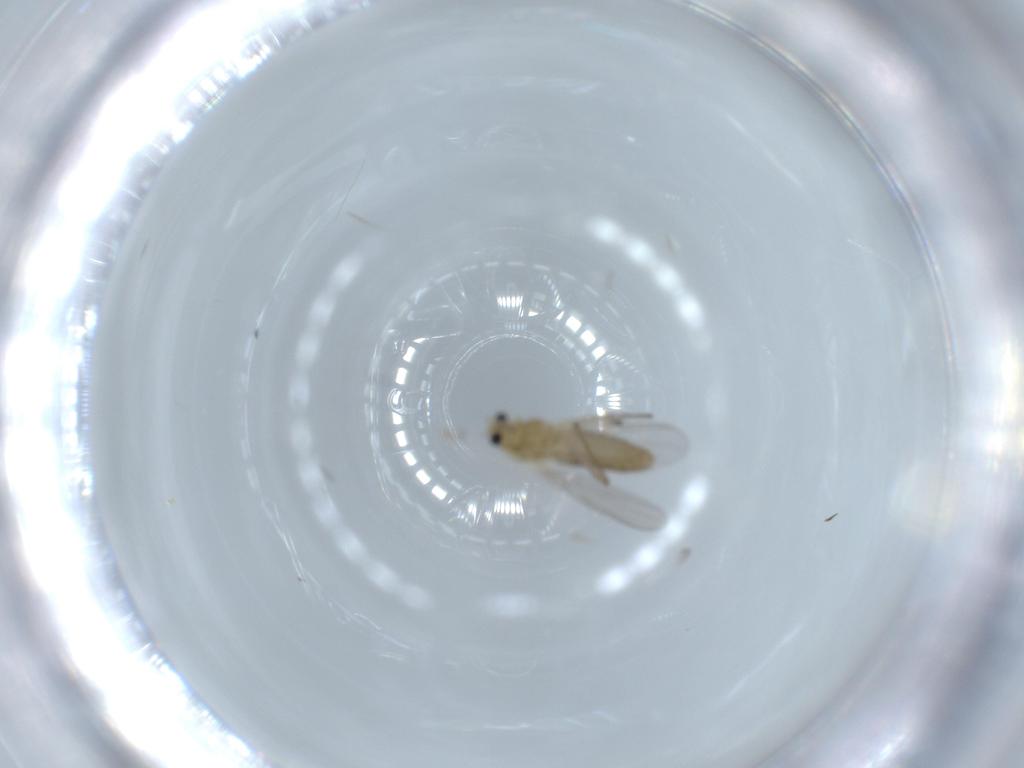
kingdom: Animalia
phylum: Arthropoda
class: Insecta
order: Diptera
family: Chironomidae
